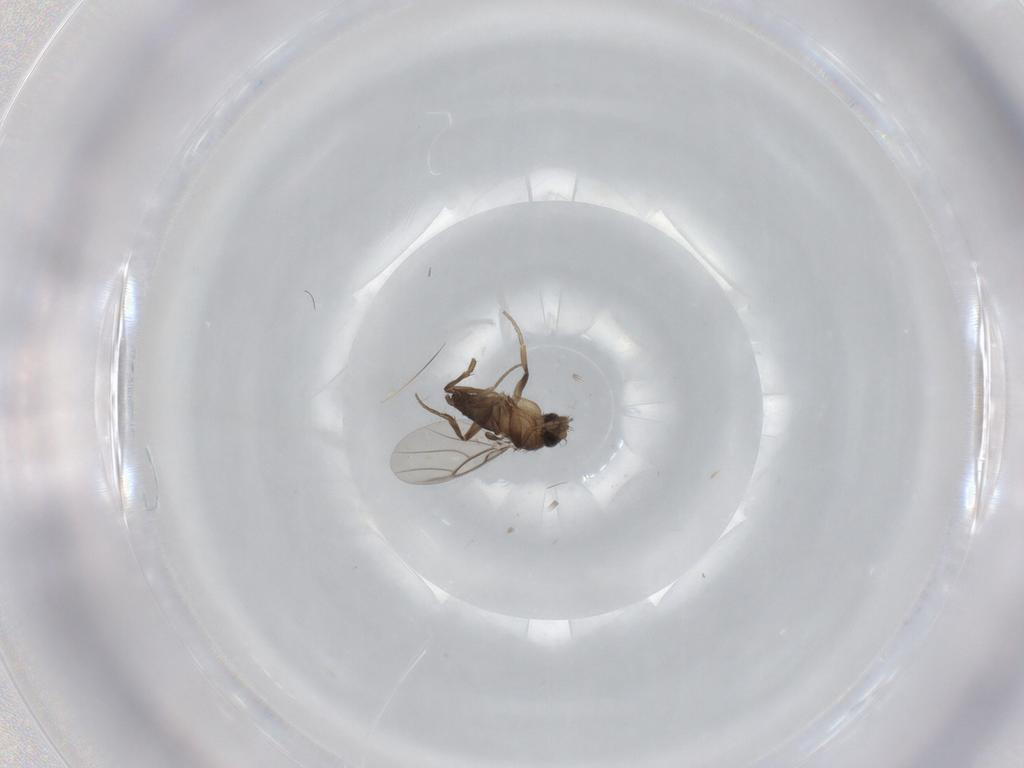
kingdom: Animalia
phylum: Arthropoda
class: Insecta
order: Diptera
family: Phoridae
